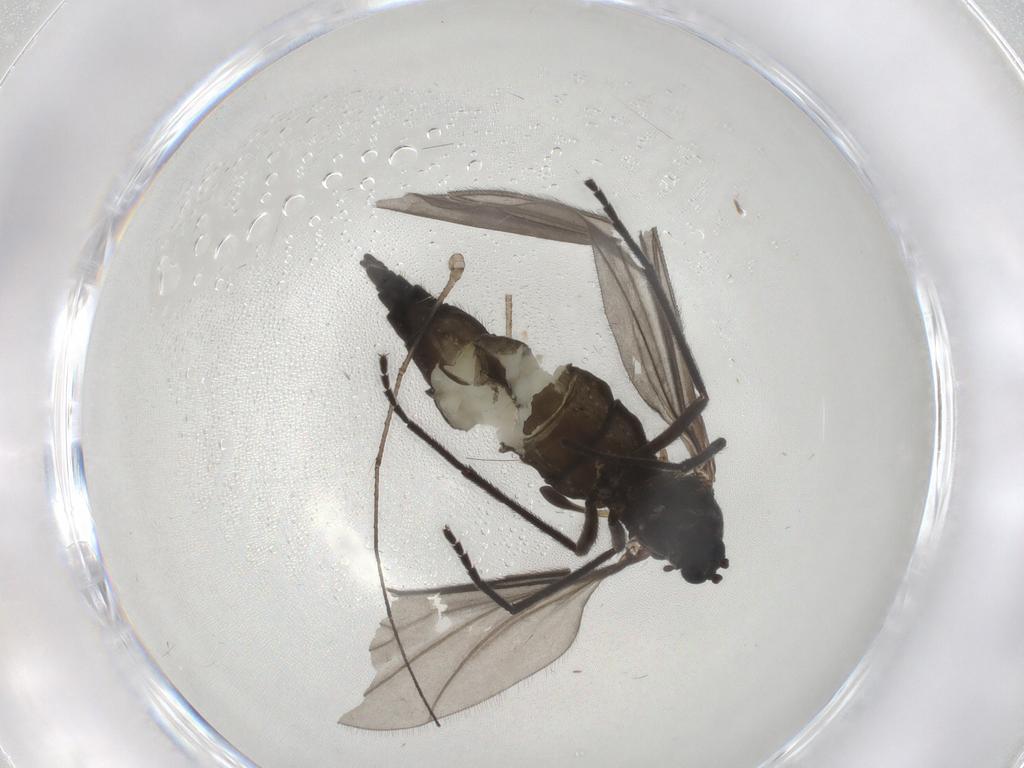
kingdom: Animalia
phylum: Arthropoda
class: Insecta
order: Diptera
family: Sciaridae
